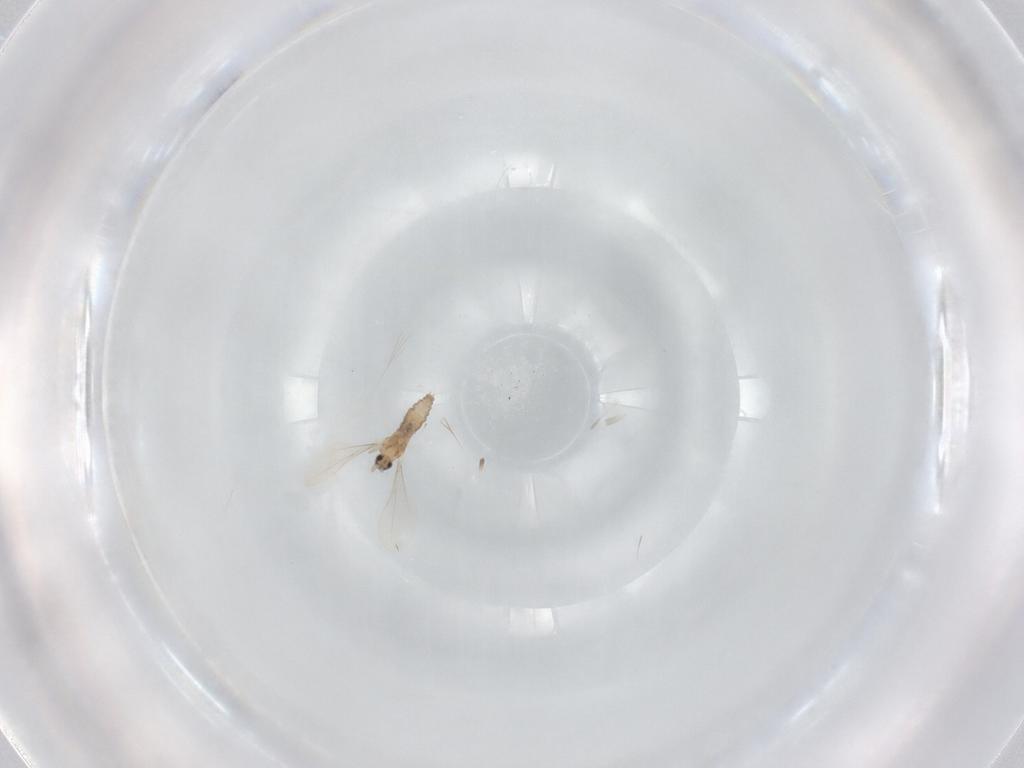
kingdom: Animalia
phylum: Arthropoda
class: Insecta
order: Diptera
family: Cecidomyiidae
